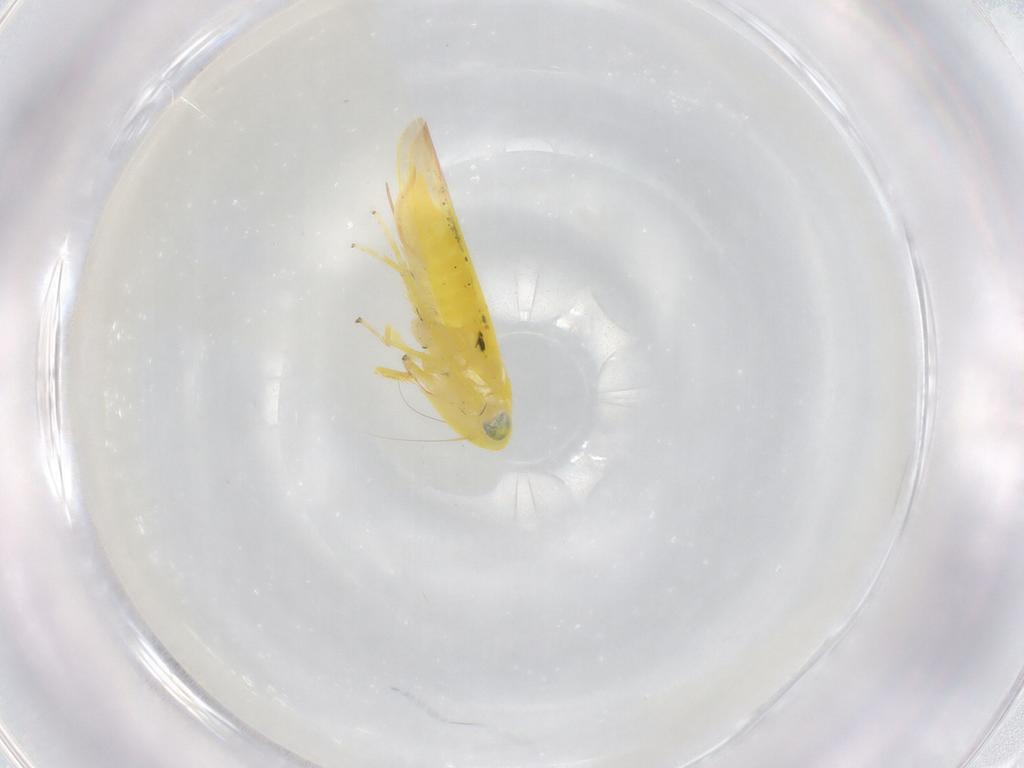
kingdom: Animalia
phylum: Arthropoda
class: Insecta
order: Hemiptera
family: Cicadellidae
